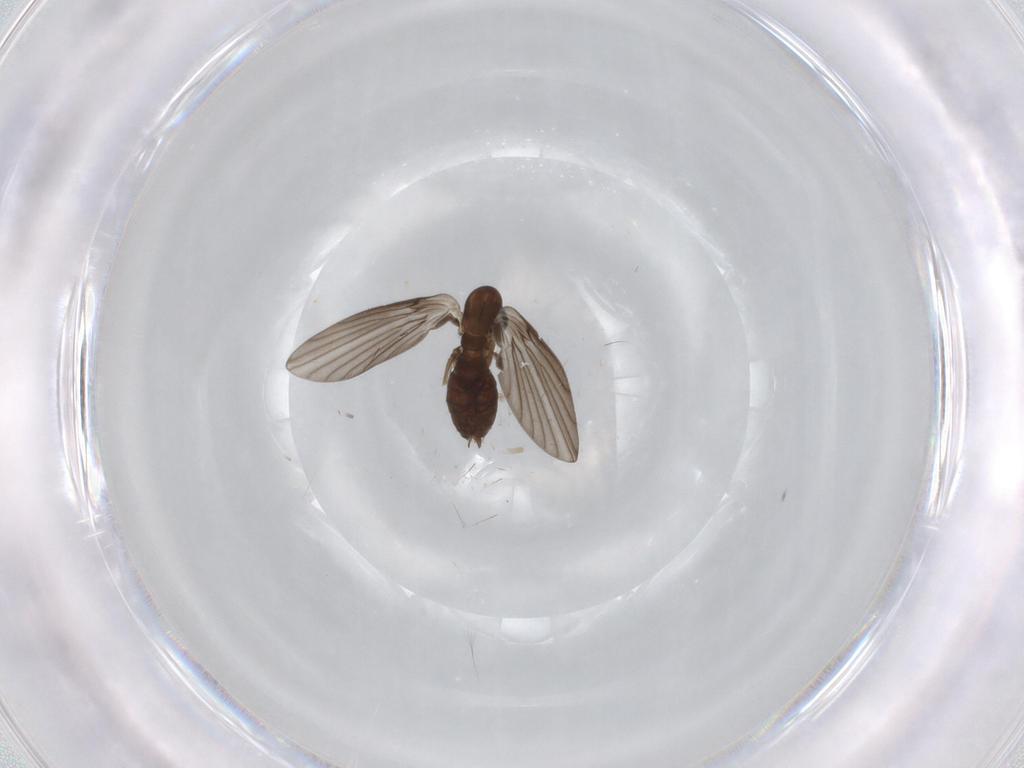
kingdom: Animalia
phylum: Arthropoda
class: Insecta
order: Diptera
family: Psychodidae
